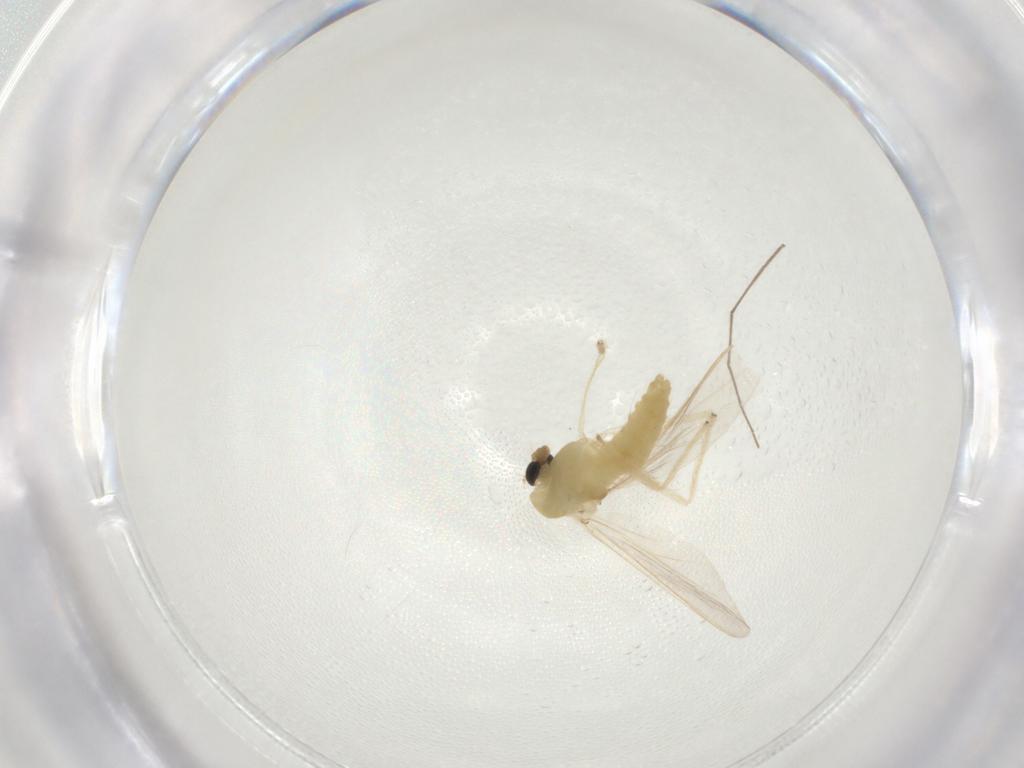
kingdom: Animalia
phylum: Arthropoda
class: Insecta
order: Diptera
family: Chironomidae
